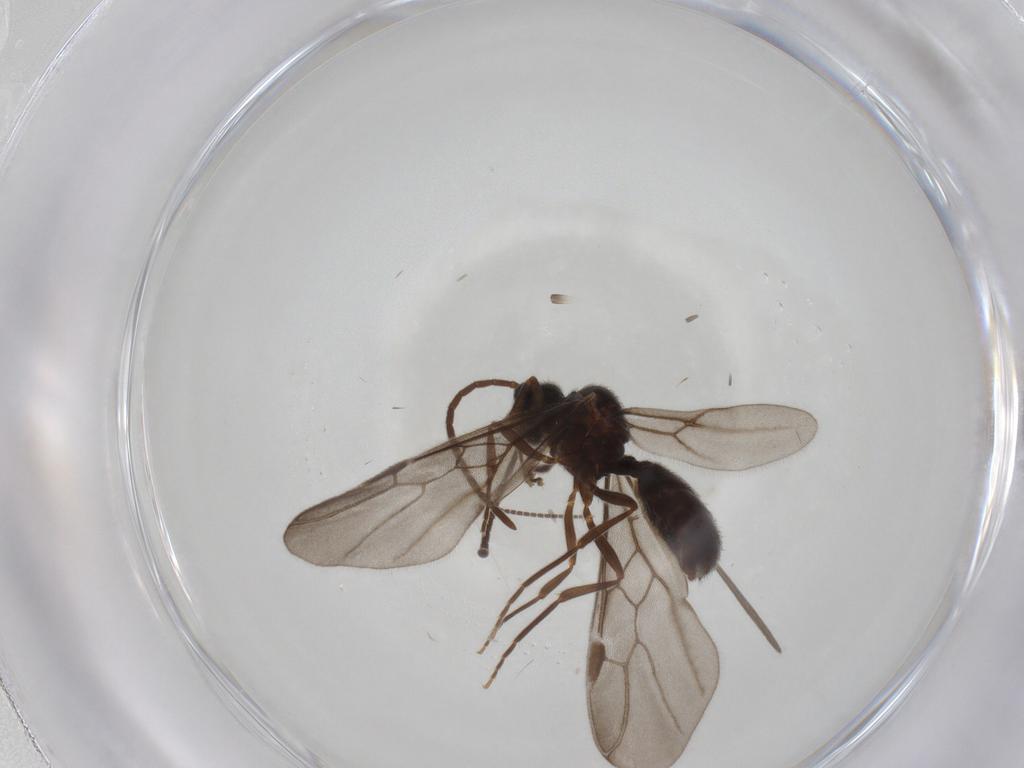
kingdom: Animalia
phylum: Arthropoda
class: Insecta
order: Hymenoptera
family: Formicidae
